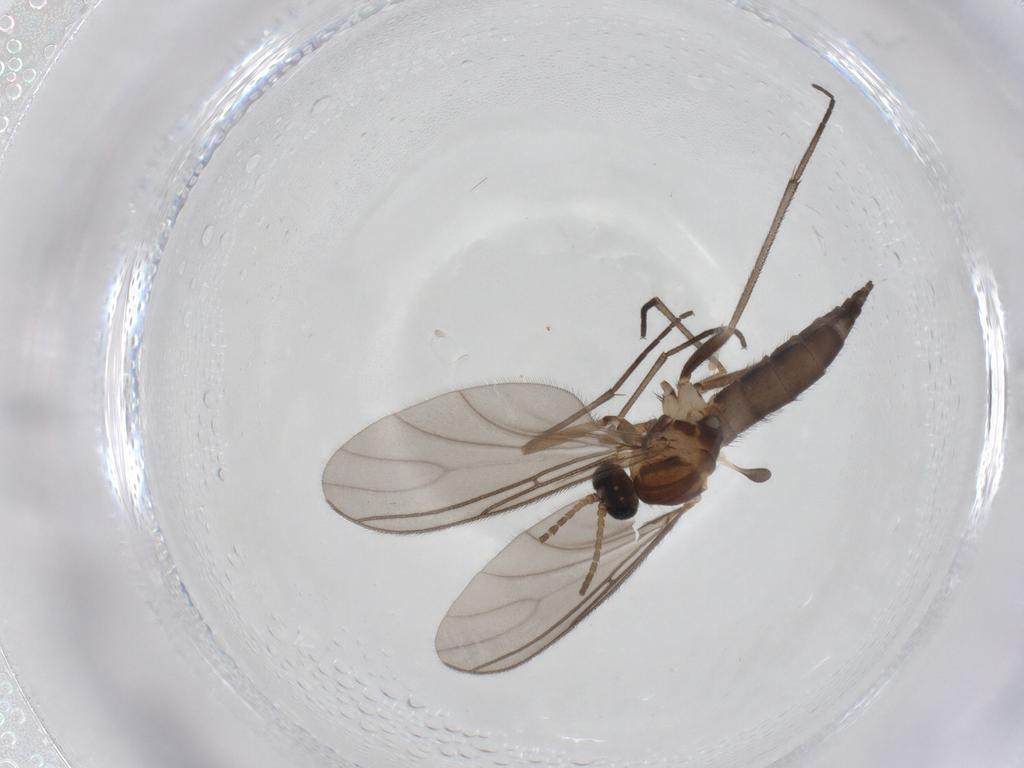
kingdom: Animalia
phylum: Arthropoda
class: Insecta
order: Diptera
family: Sciaridae
